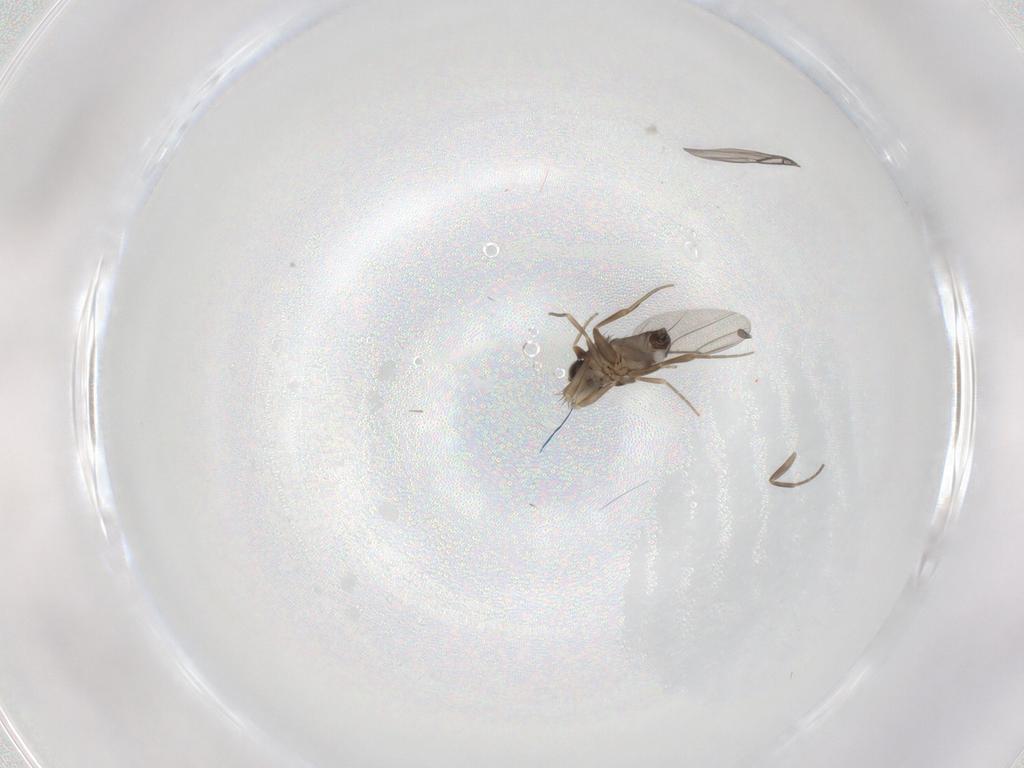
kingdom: Animalia
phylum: Arthropoda
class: Insecta
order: Diptera
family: Phoridae
